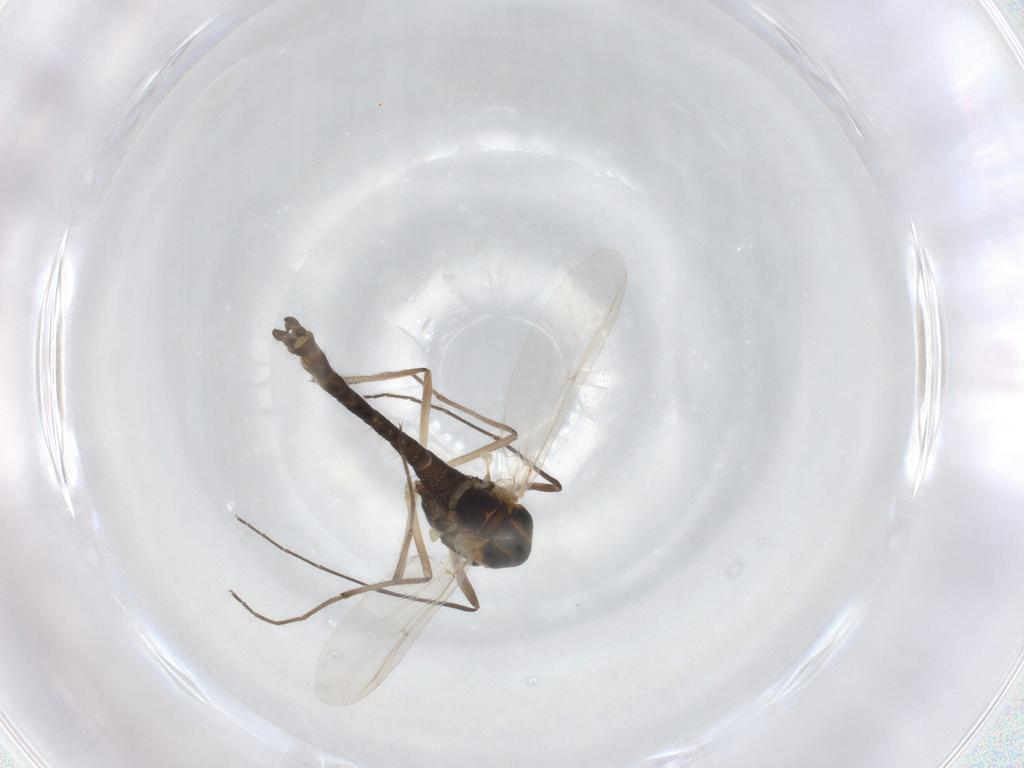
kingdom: Animalia
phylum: Arthropoda
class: Insecta
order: Diptera
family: Chironomidae
